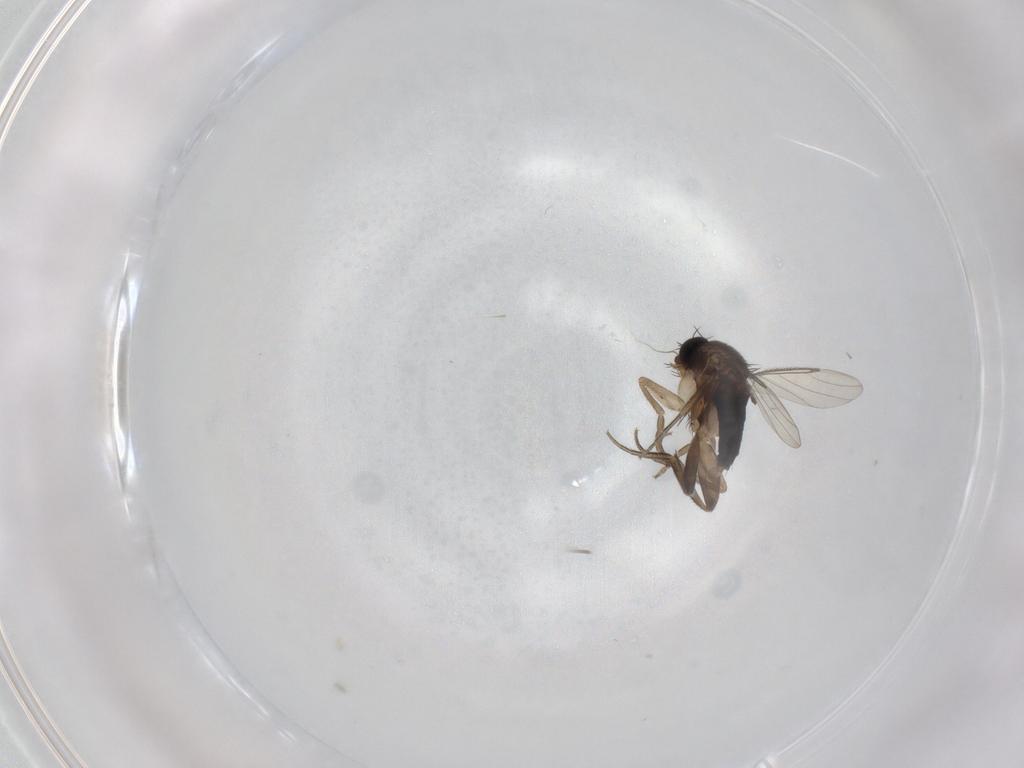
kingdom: Animalia
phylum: Arthropoda
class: Insecta
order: Diptera
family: Phoridae
